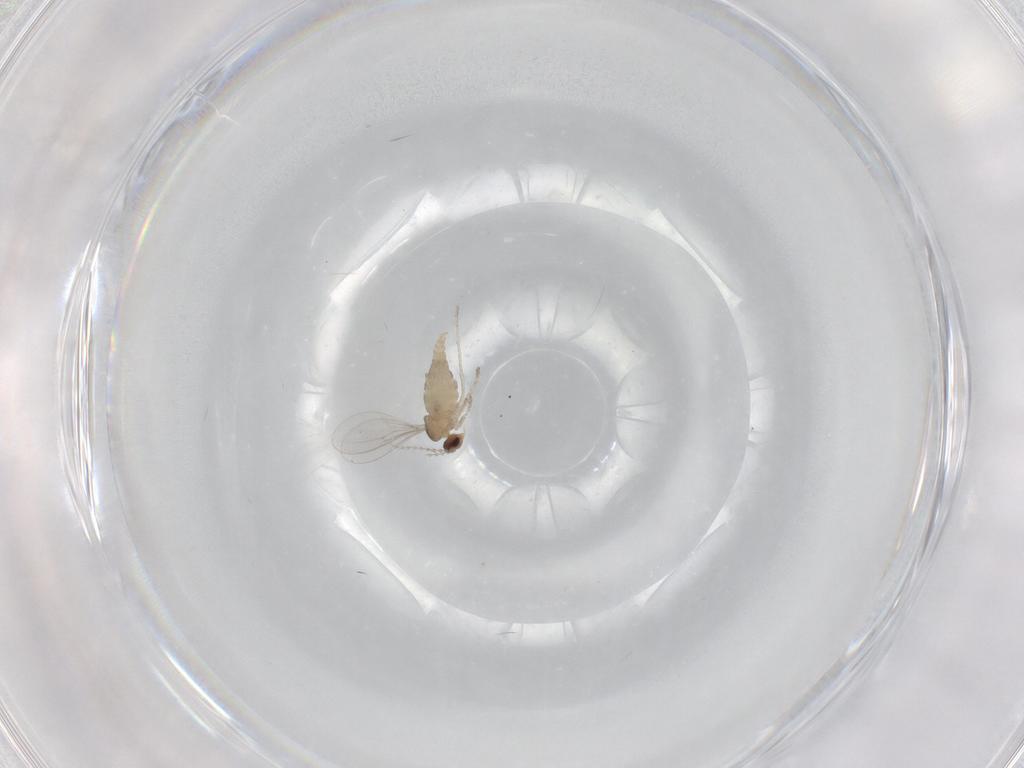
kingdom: Animalia
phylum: Arthropoda
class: Insecta
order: Diptera
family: Cecidomyiidae
